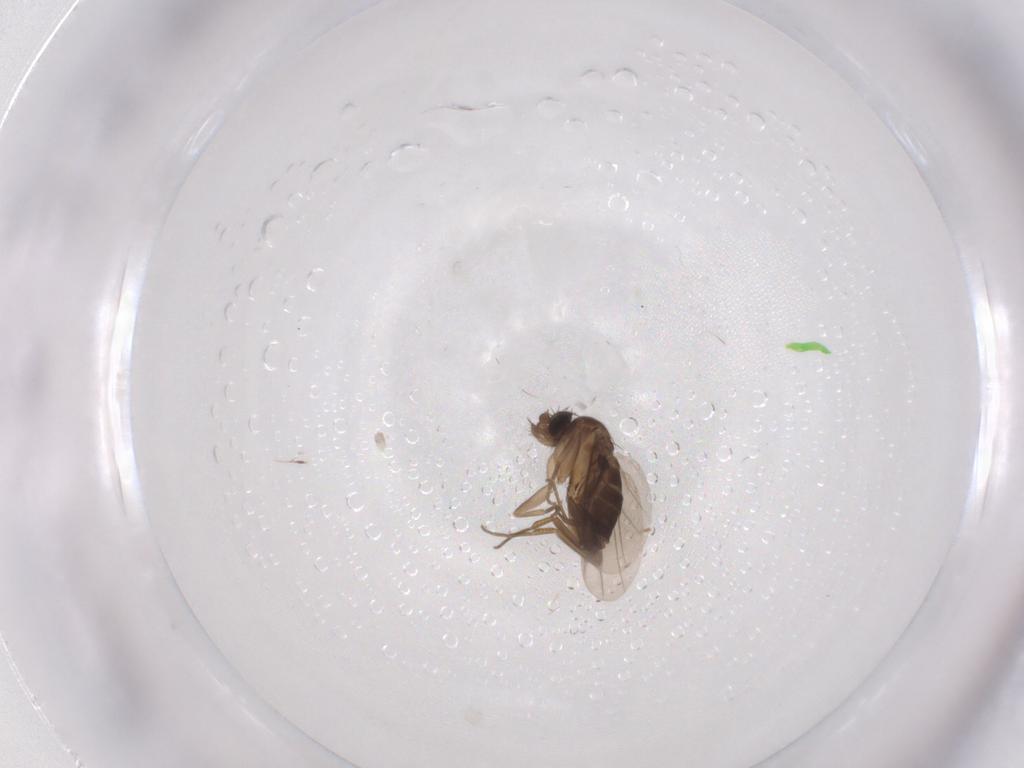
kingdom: Animalia
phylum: Arthropoda
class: Insecta
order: Diptera
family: Phoridae
